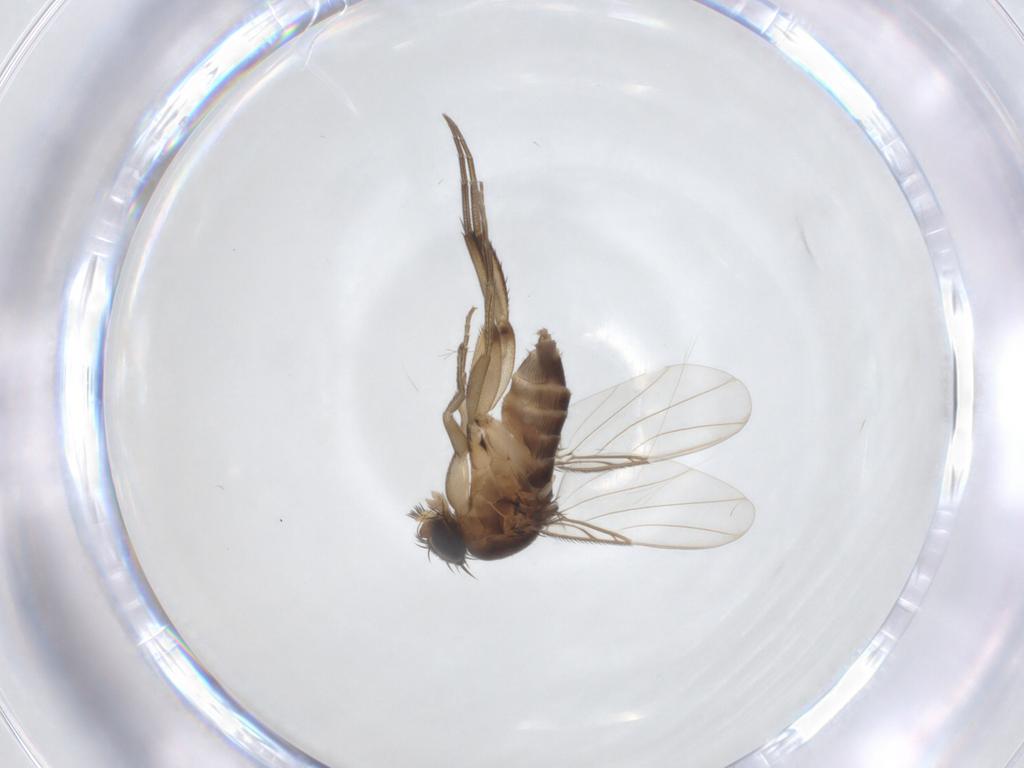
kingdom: Animalia
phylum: Arthropoda
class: Insecta
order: Diptera
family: Phoridae
